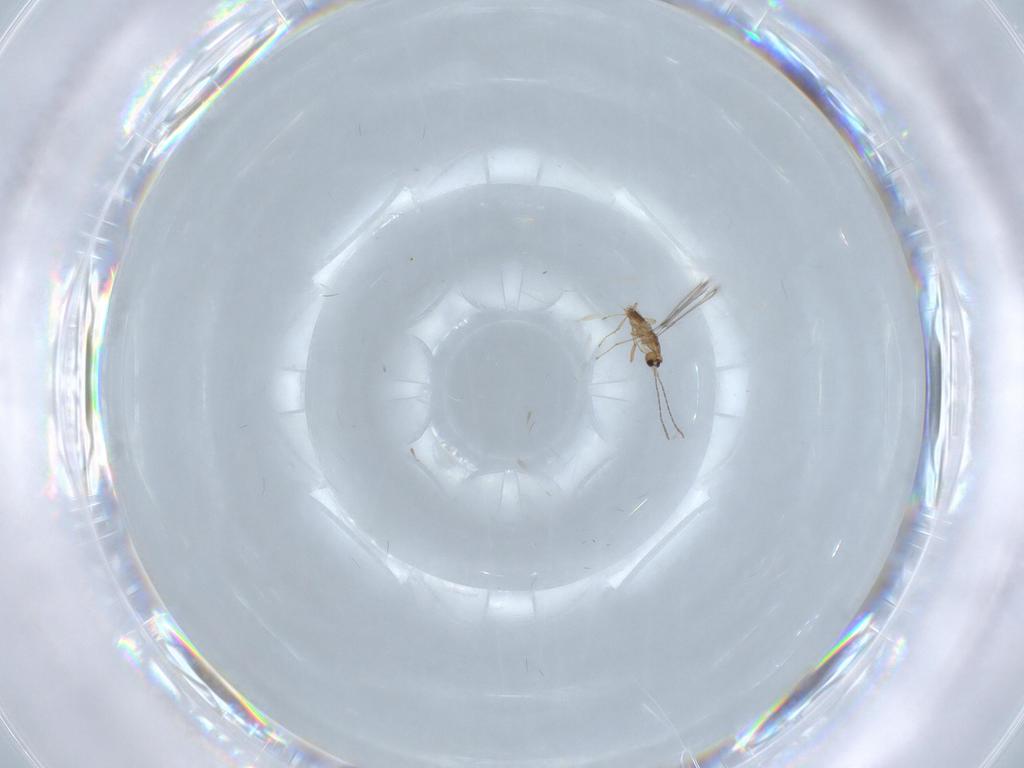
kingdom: Animalia
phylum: Arthropoda
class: Insecta
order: Hymenoptera
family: Mymaridae
